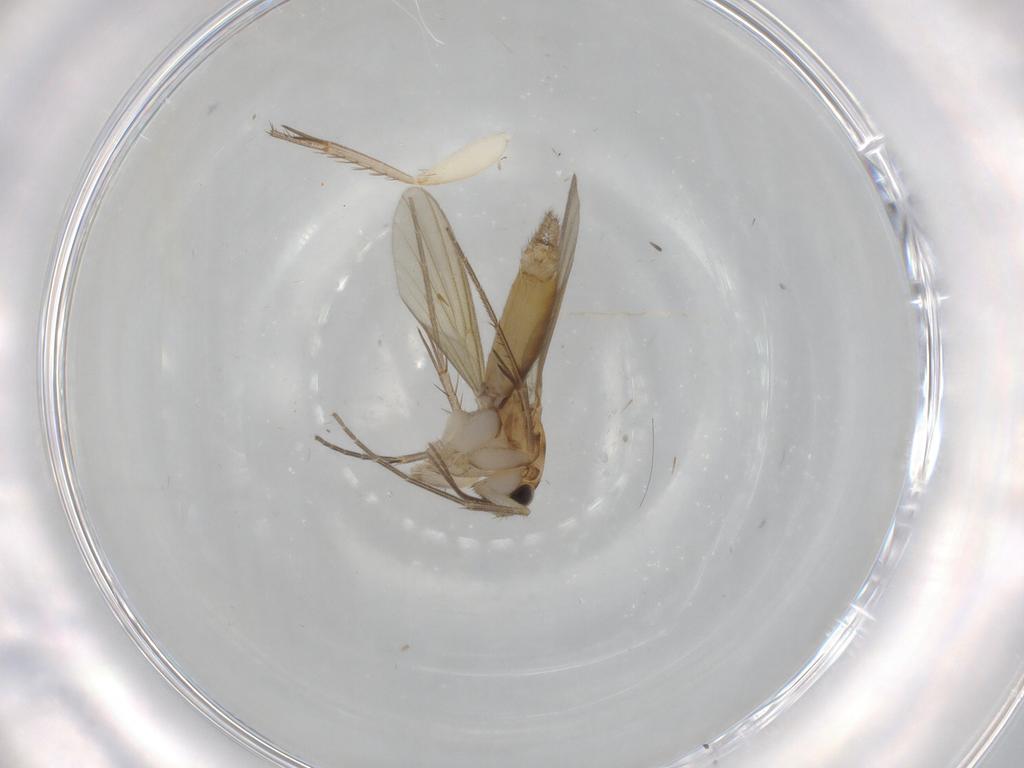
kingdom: Animalia
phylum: Arthropoda
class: Insecta
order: Diptera
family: Mycetophilidae
